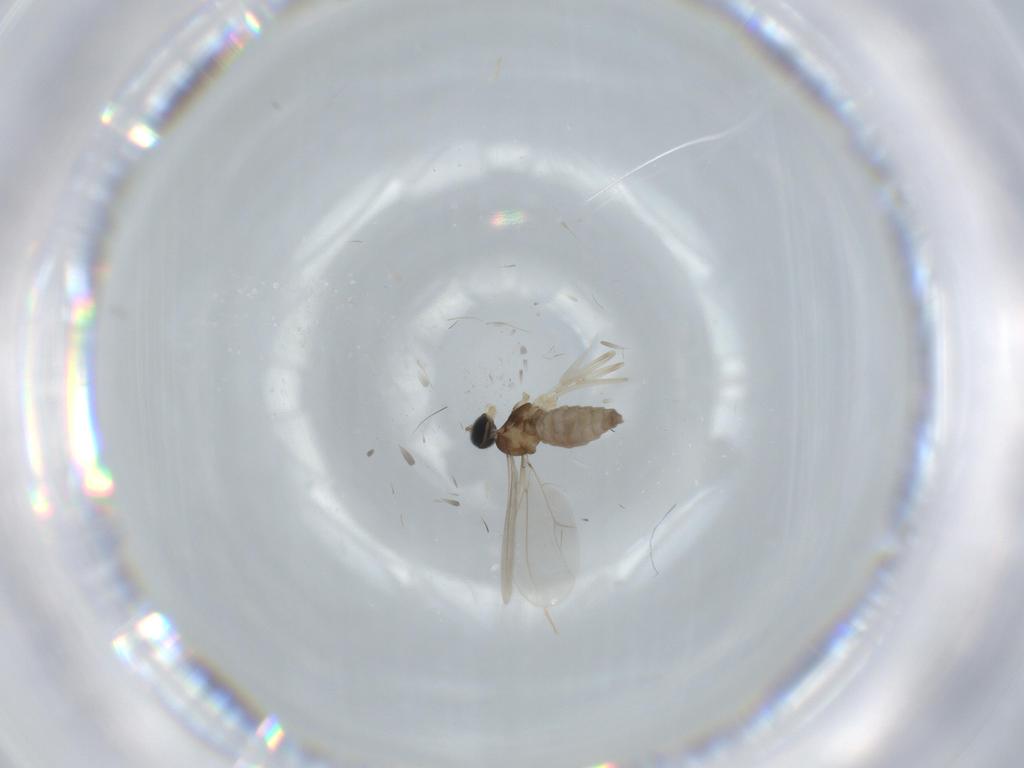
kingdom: Animalia
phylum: Arthropoda
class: Insecta
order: Diptera
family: Cecidomyiidae
